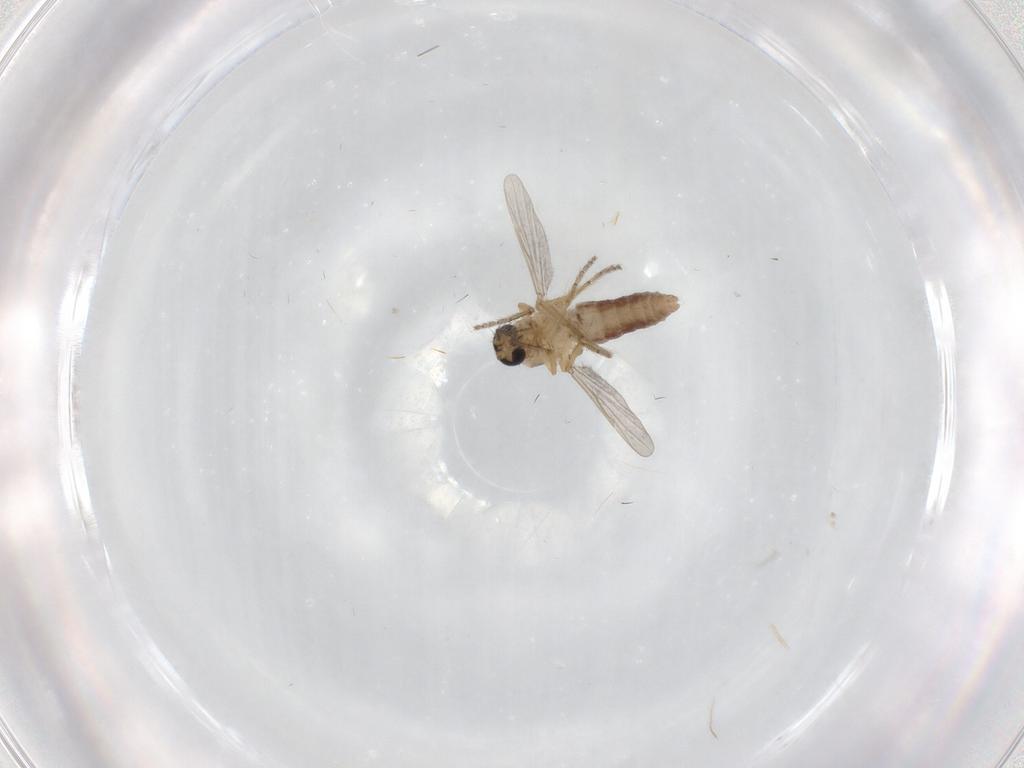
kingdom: Animalia
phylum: Arthropoda
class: Insecta
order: Diptera
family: Ceratopogonidae
